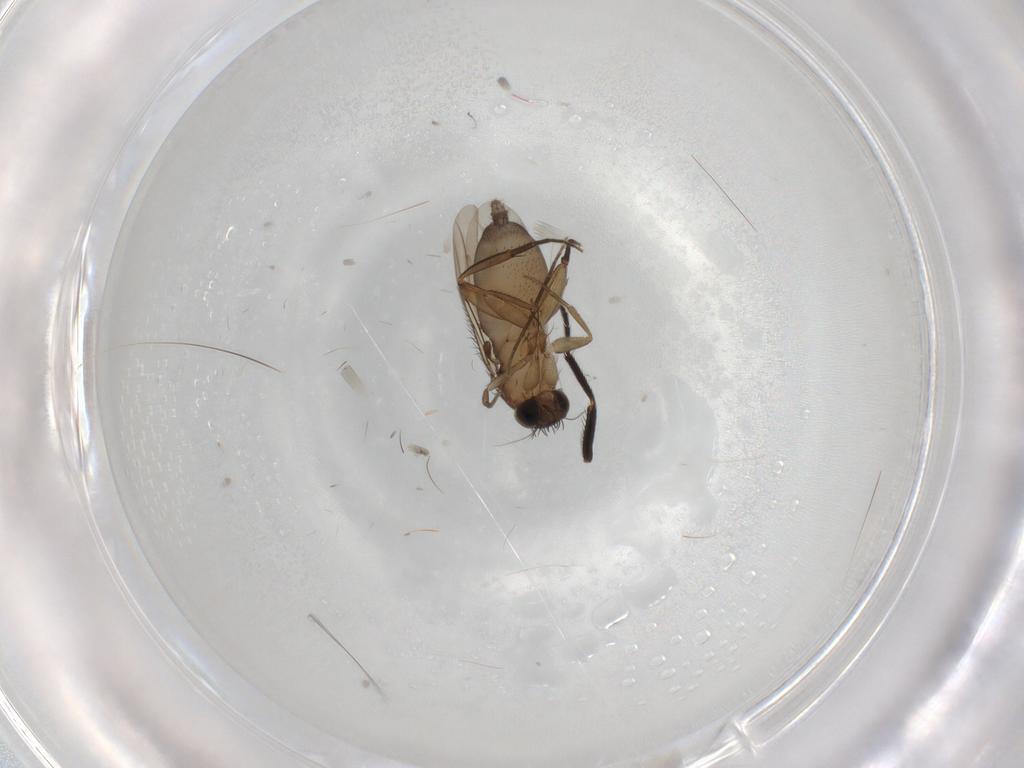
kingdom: Animalia
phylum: Arthropoda
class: Insecta
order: Diptera
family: Phoridae
